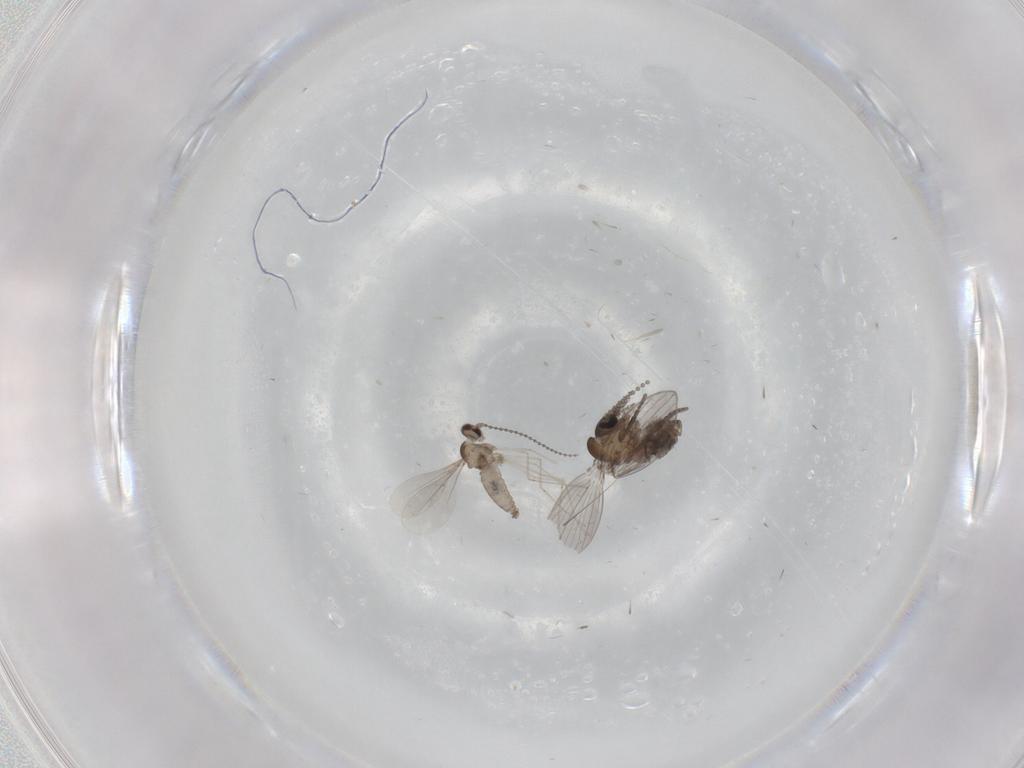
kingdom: Animalia
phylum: Arthropoda
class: Insecta
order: Diptera
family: Psychodidae
